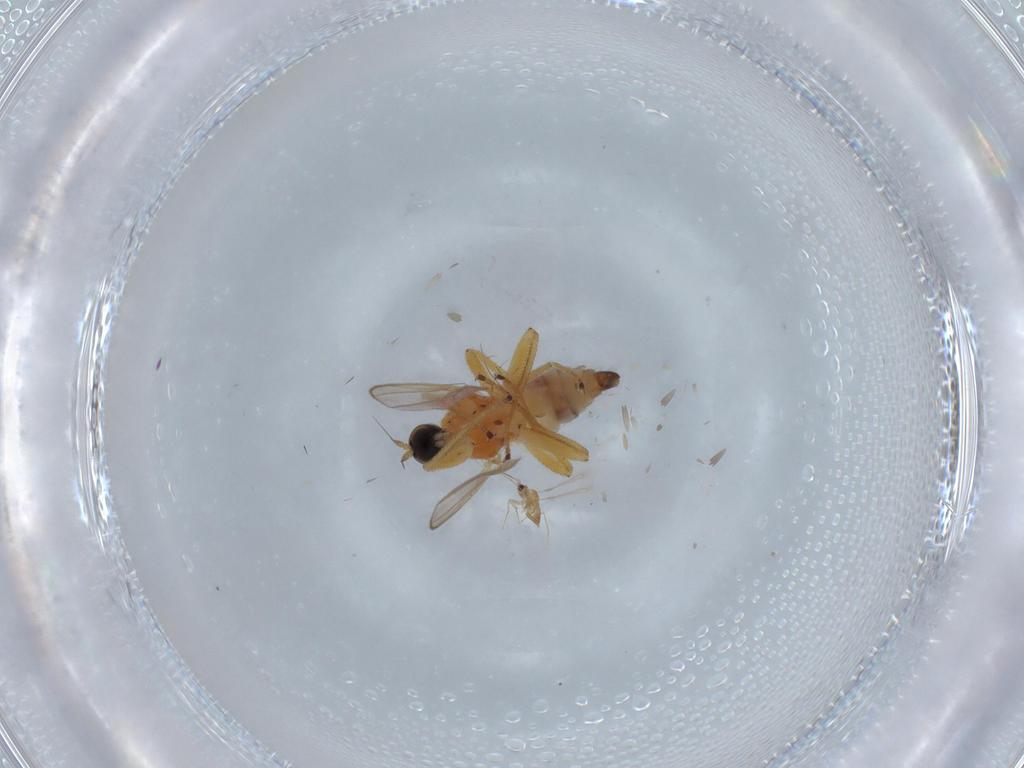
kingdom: Animalia
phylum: Arthropoda
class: Insecta
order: Diptera
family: Hybotidae
